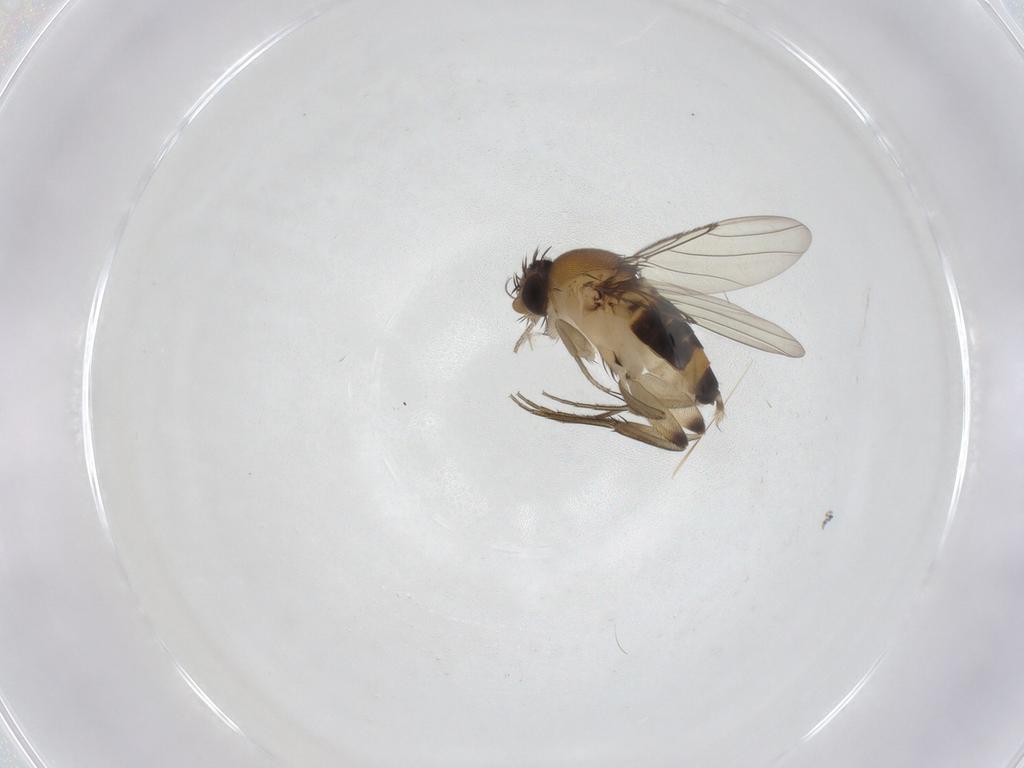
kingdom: Animalia
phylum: Arthropoda
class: Insecta
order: Diptera
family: Phoridae
